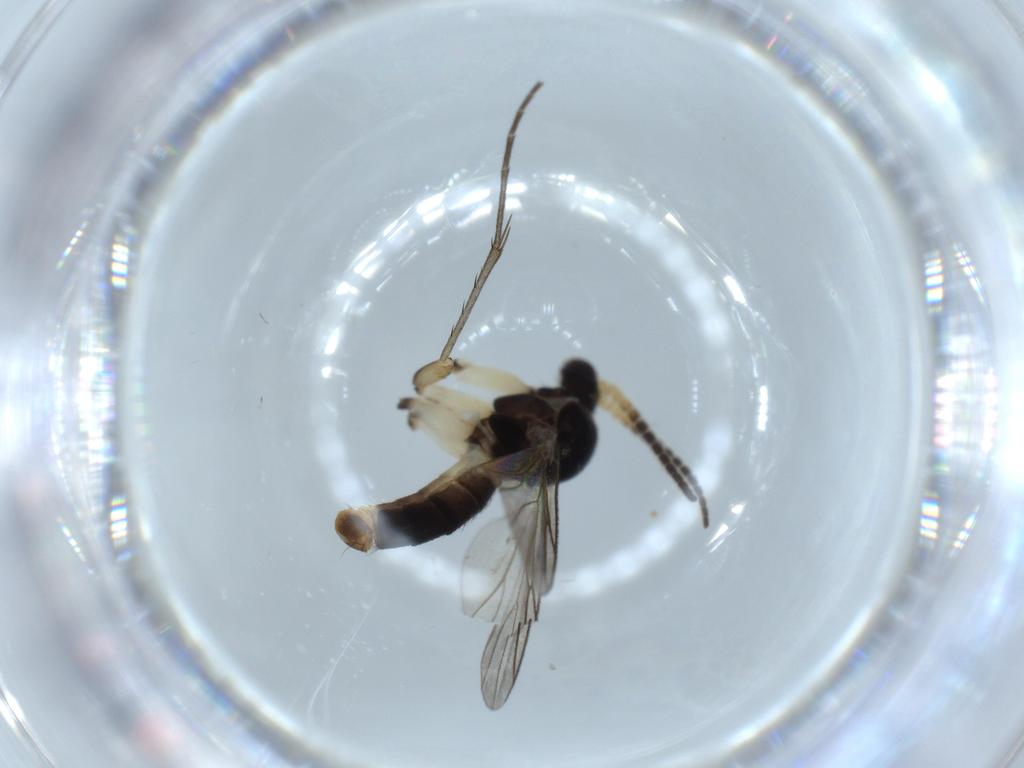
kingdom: Animalia
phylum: Arthropoda
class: Insecta
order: Diptera
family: Mycetophilidae
